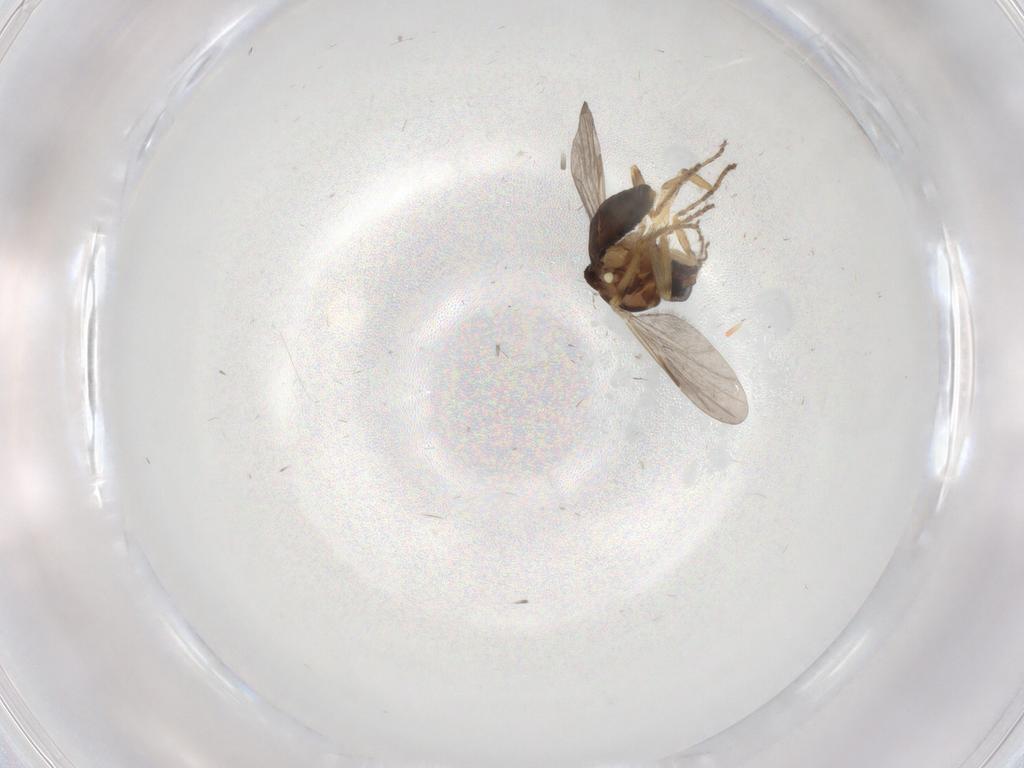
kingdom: Animalia
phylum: Arthropoda
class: Insecta
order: Diptera
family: Ceratopogonidae
